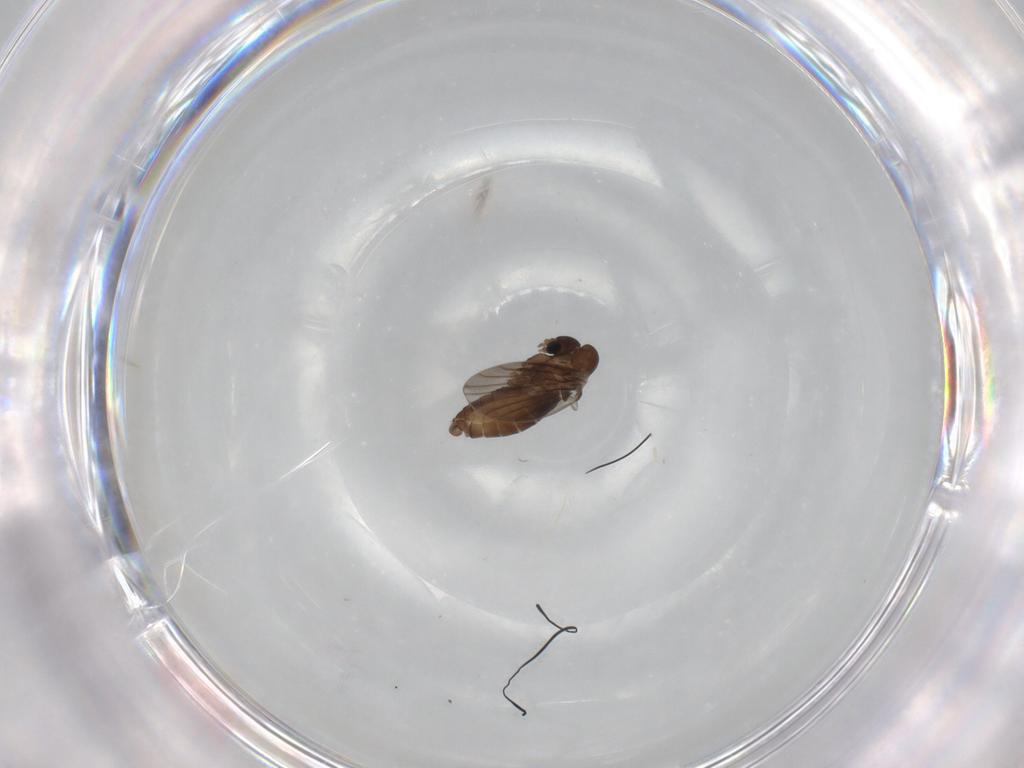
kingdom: Animalia
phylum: Arthropoda
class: Insecta
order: Diptera
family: Cecidomyiidae
